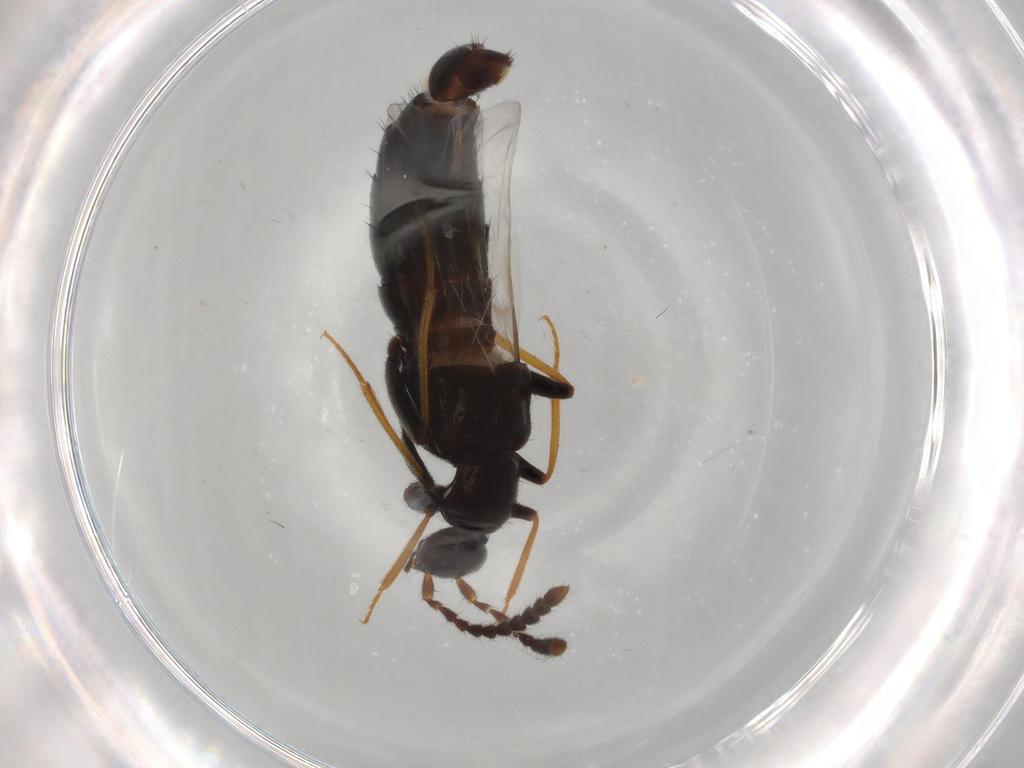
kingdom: Animalia
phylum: Arthropoda
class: Insecta
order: Coleoptera
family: Staphylinidae
